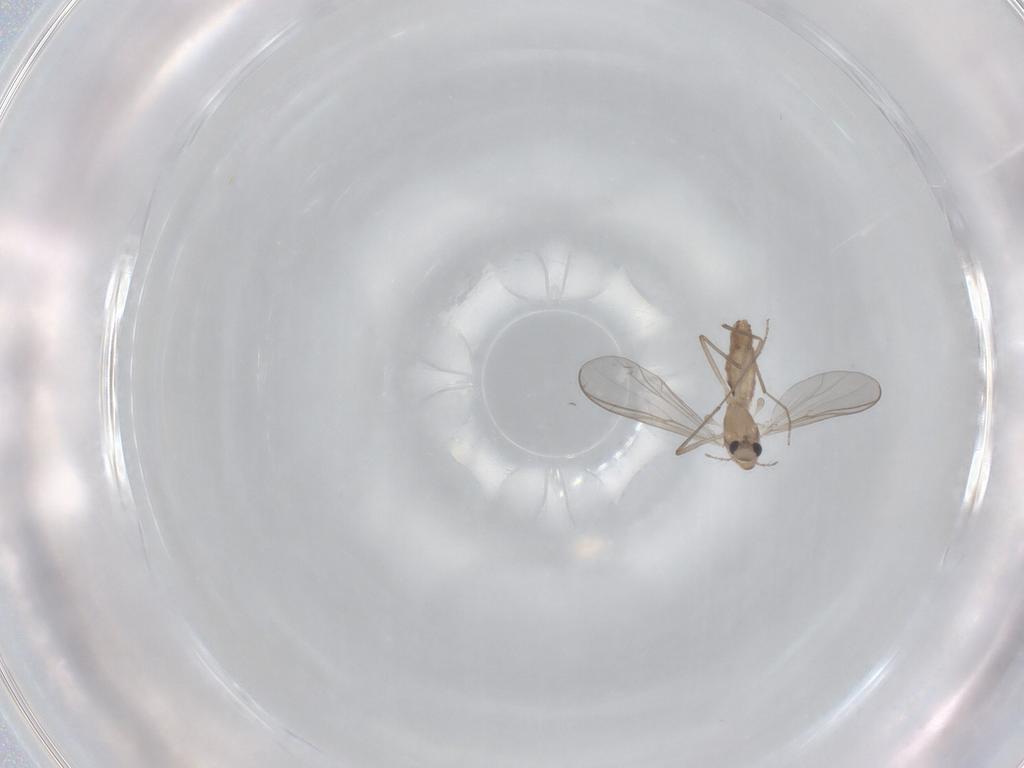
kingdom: Animalia
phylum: Arthropoda
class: Insecta
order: Diptera
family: Chironomidae
